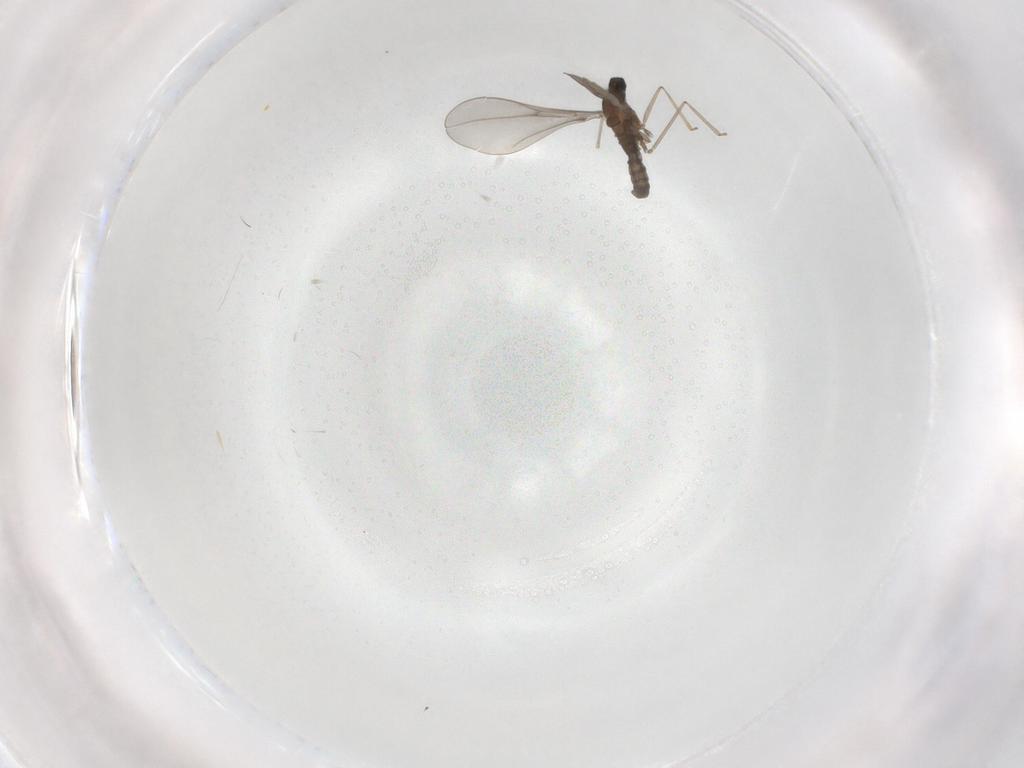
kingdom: Animalia
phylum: Arthropoda
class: Insecta
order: Diptera
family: Cecidomyiidae
